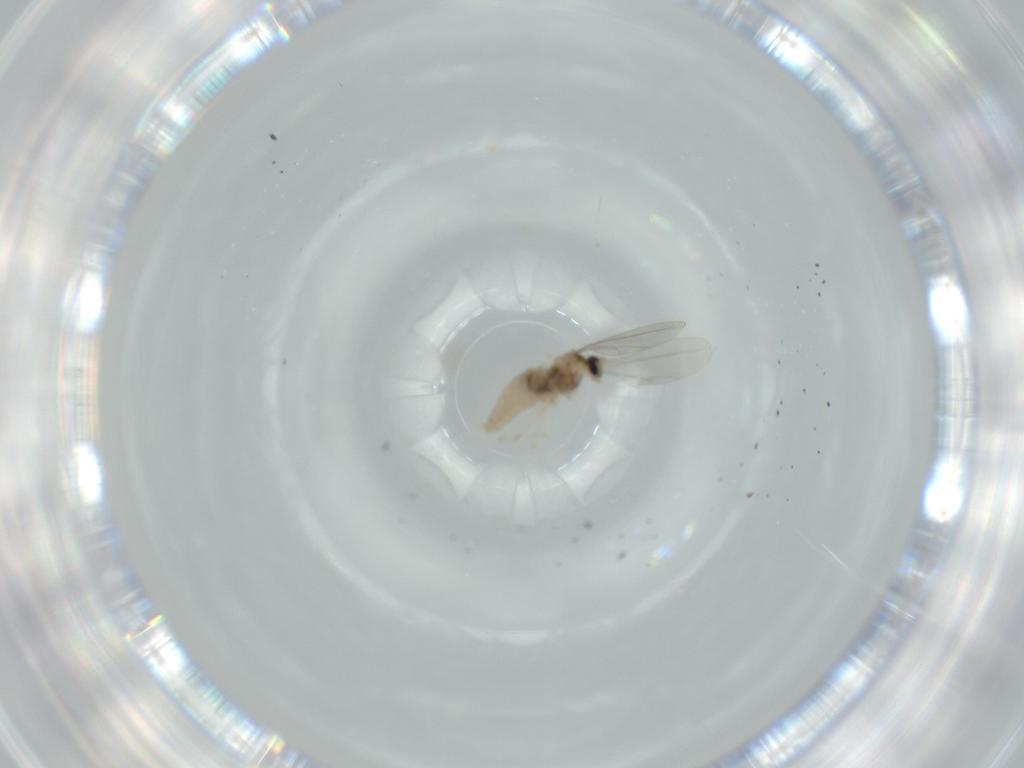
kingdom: Animalia
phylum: Arthropoda
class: Insecta
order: Diptera
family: Cecidomyiidae
